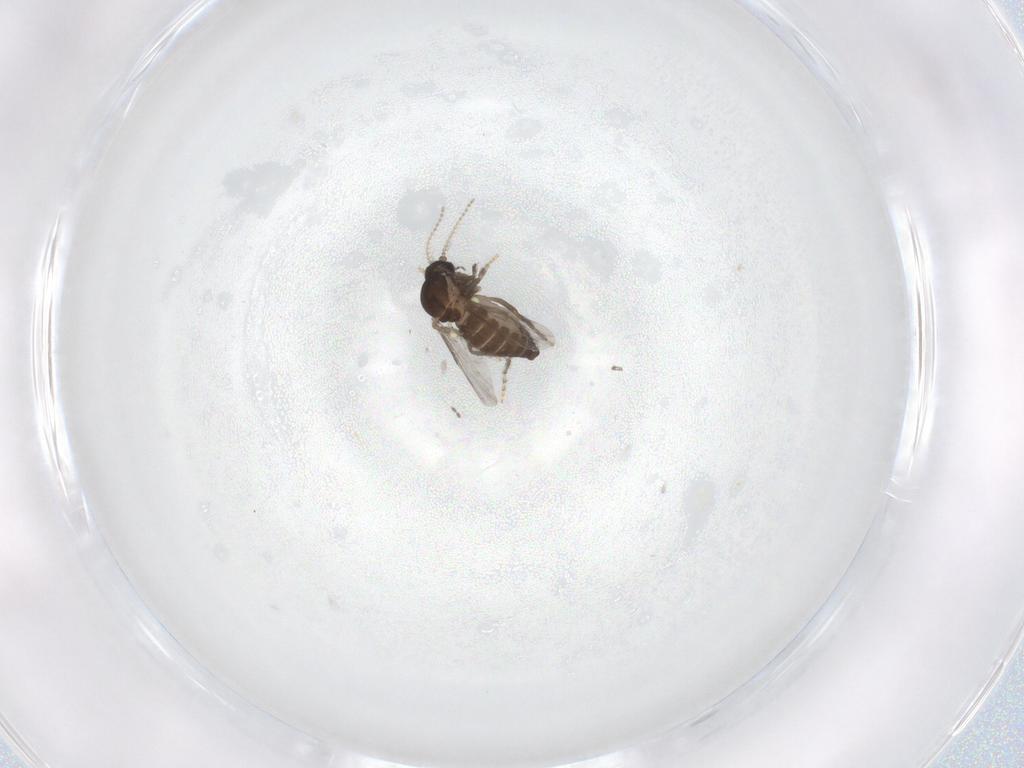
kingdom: Animalia
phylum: Arthropoda
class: Insecta
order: Diptera
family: Ceratopogonidae
